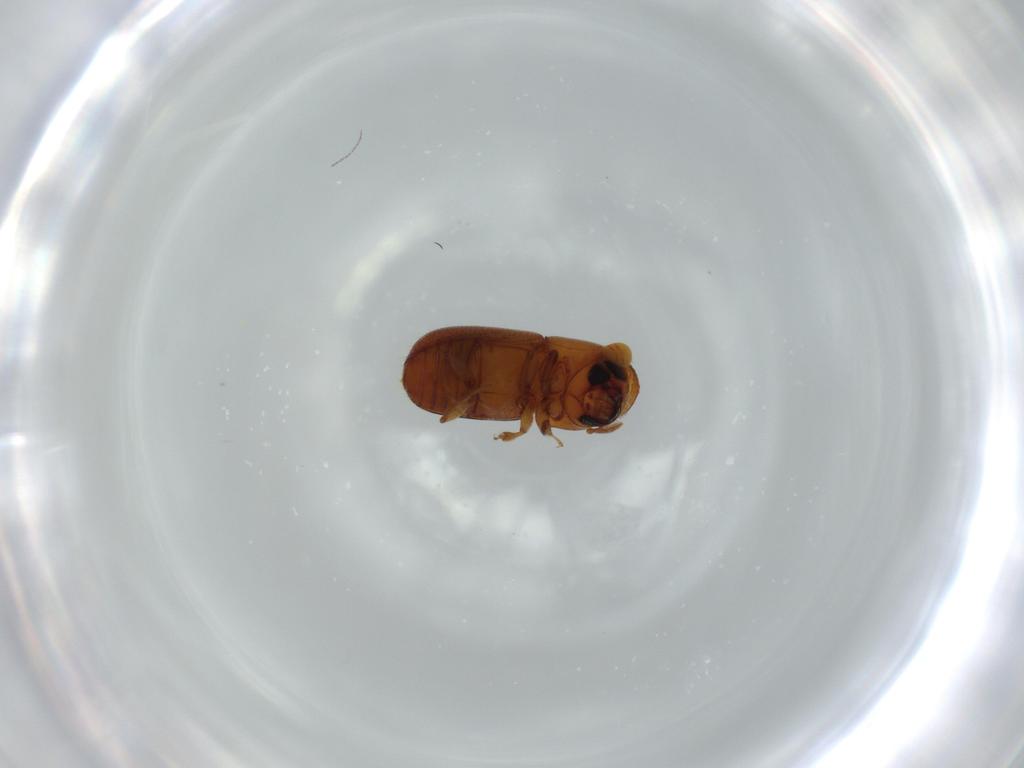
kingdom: Animalia
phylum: Arthropoda
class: Insecta
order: Coleoptera
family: Curculionidae
